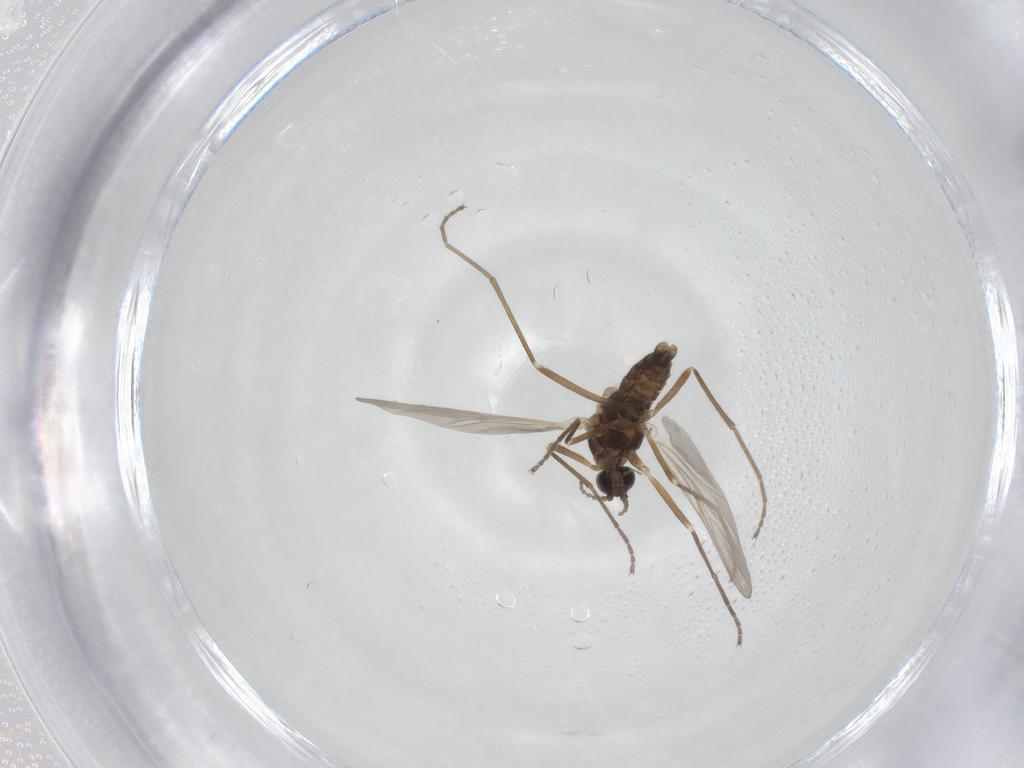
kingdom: Animalia
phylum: Arthropoda
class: Insecta
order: Diptera
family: Cecidomyiidae
